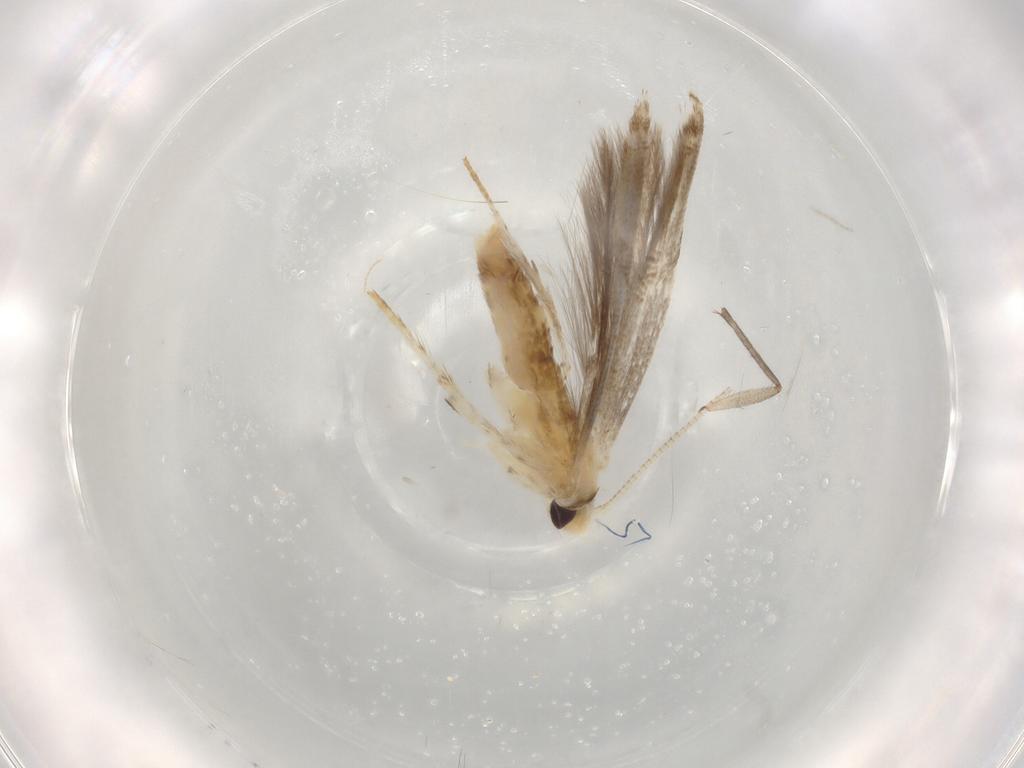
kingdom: Animalia
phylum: Arthropoda
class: Insecta
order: Lepidoptera
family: Gracillariidae
